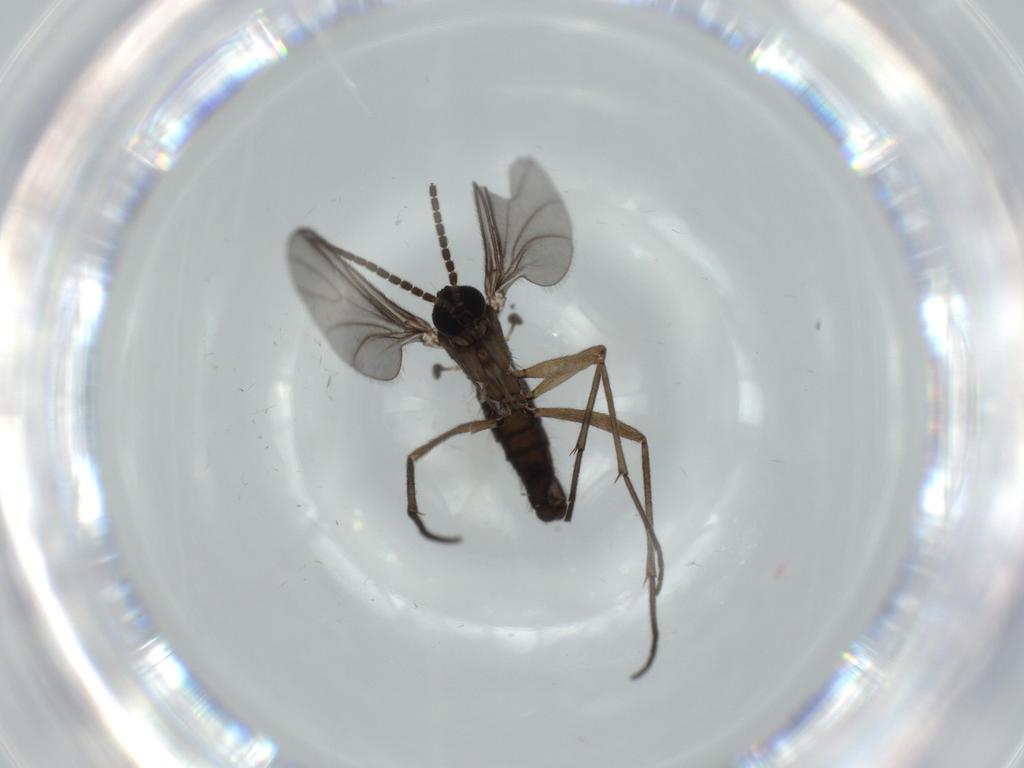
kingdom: Animalia
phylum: Arthropoda
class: Insecta
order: Diptera
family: Sciaridae
